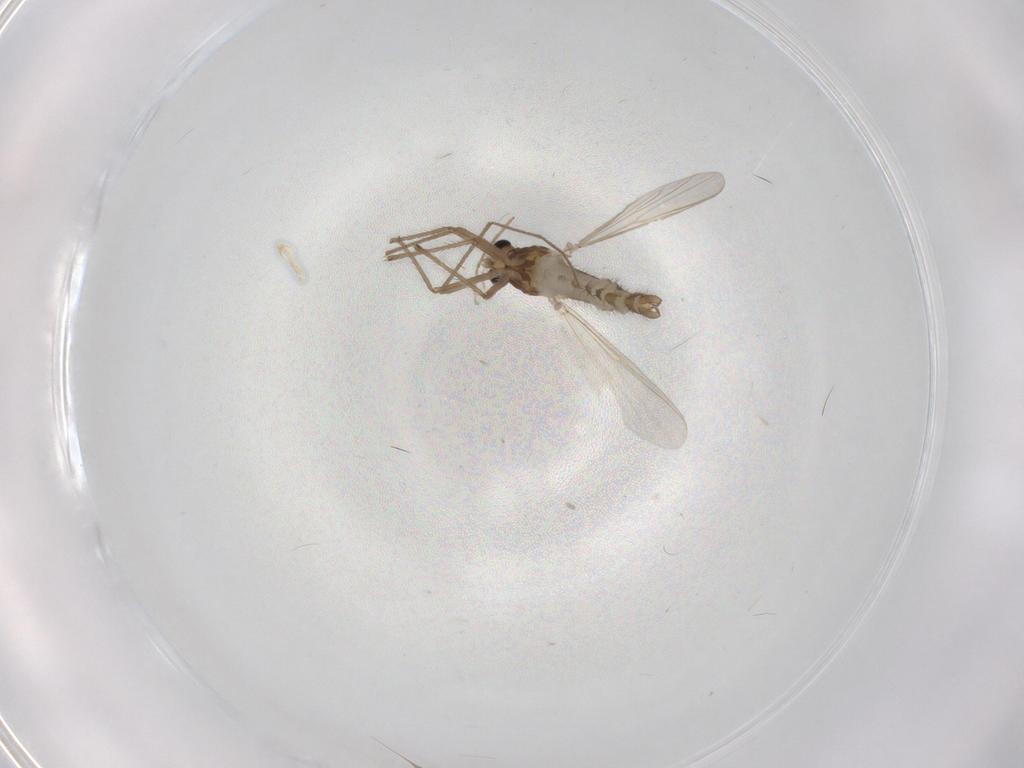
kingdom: Animalia
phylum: Arthropoda
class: Insecta
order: Diptera
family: Chironomidae
